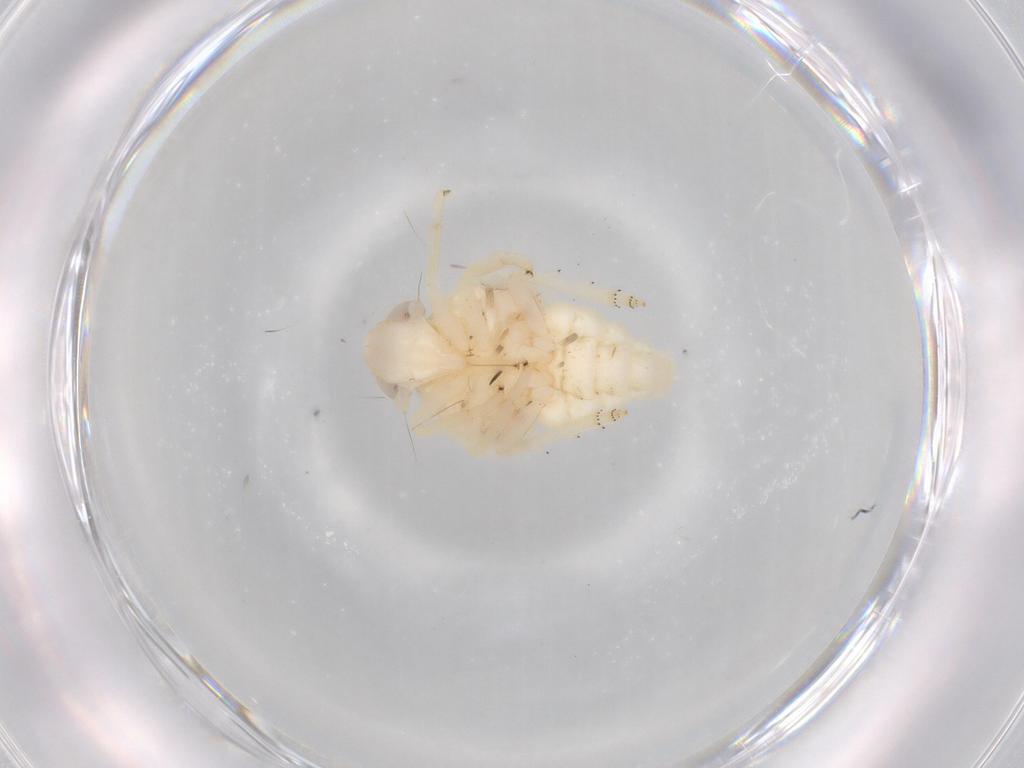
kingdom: Animalia
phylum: Arthropoda
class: Insecta
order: Hemiptera
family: Nogodinidae
